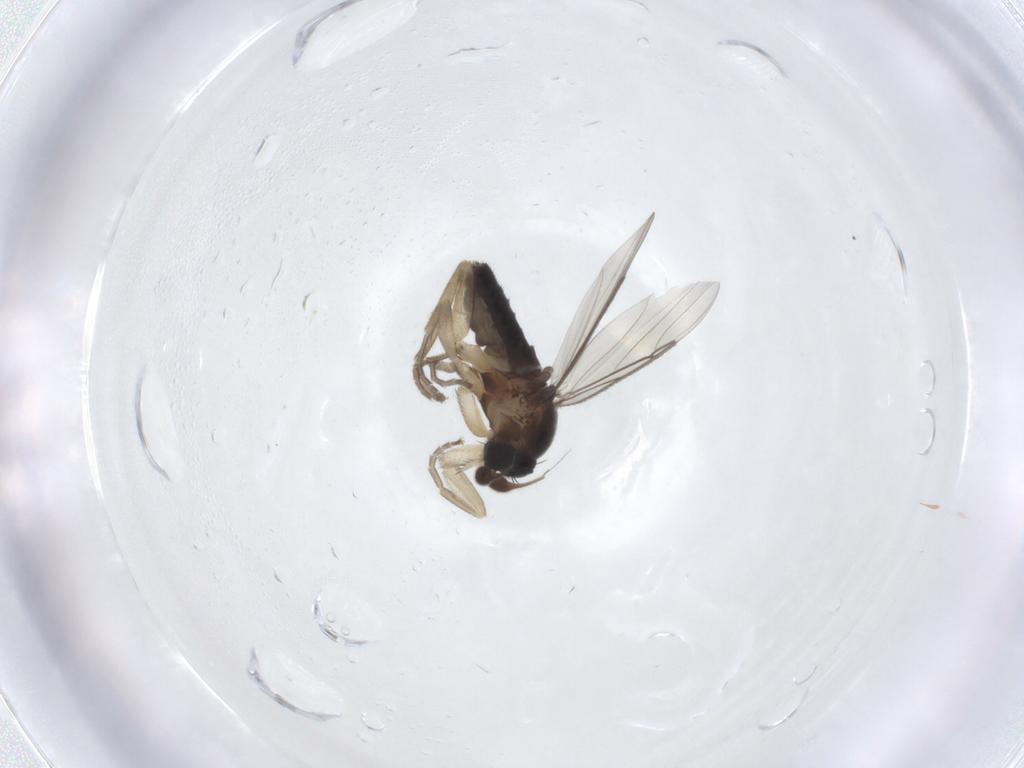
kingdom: Animalia
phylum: Arthropoda
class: Insecta
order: Diptera
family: Phoridae
